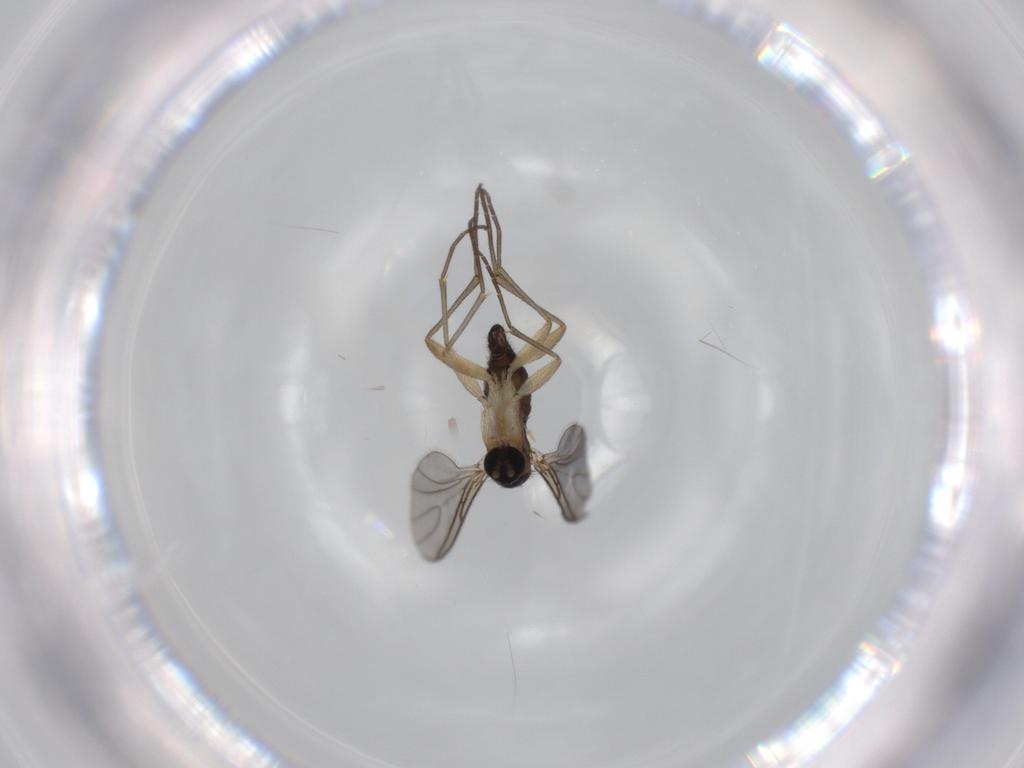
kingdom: Animalia
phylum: Arthropoda
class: Insecta
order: Diptera
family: Sciaridae
